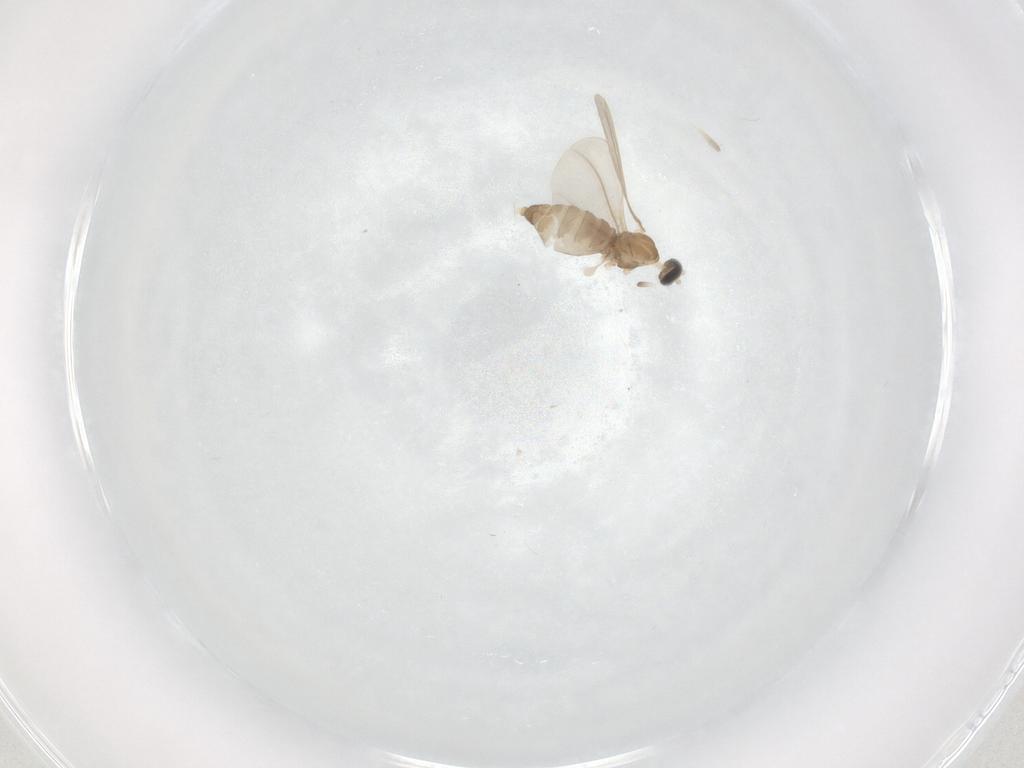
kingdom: Animalia
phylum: Arthropoda
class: Insecta
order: Diptera
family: Cecidomyiidae
